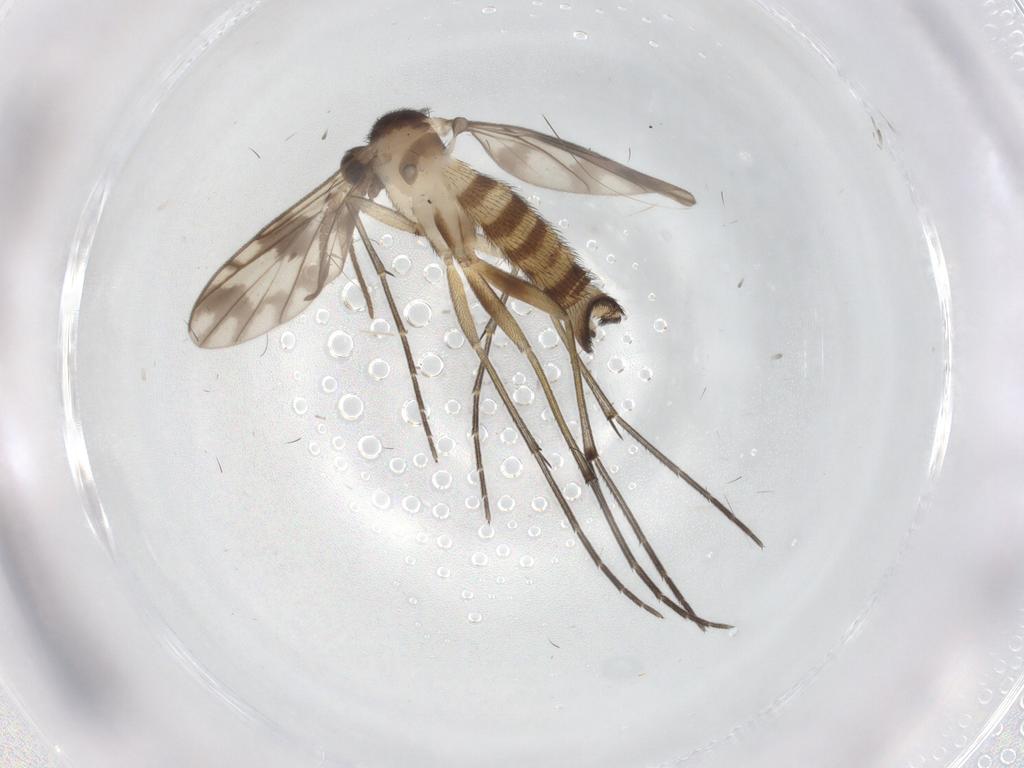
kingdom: Animalia
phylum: Arthropoda
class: Insecta
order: Diptera
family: Keroplatidae
